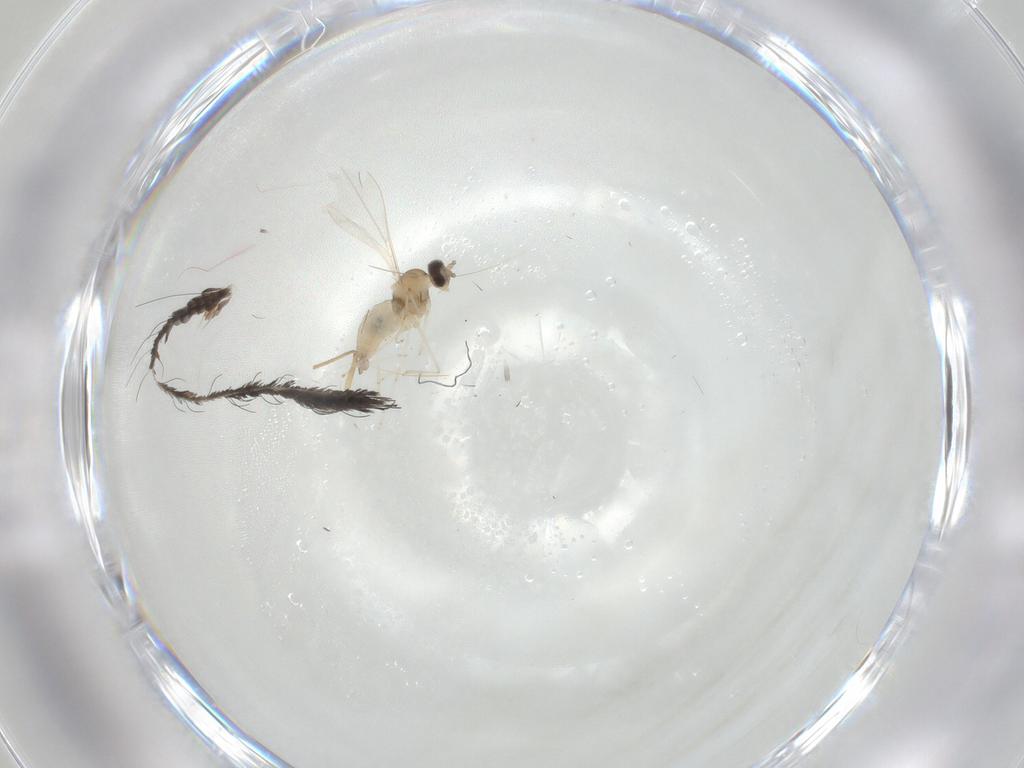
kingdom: Animalia
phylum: Arthropoda
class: Insecta
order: Diptera
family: Cecidomyiidae
